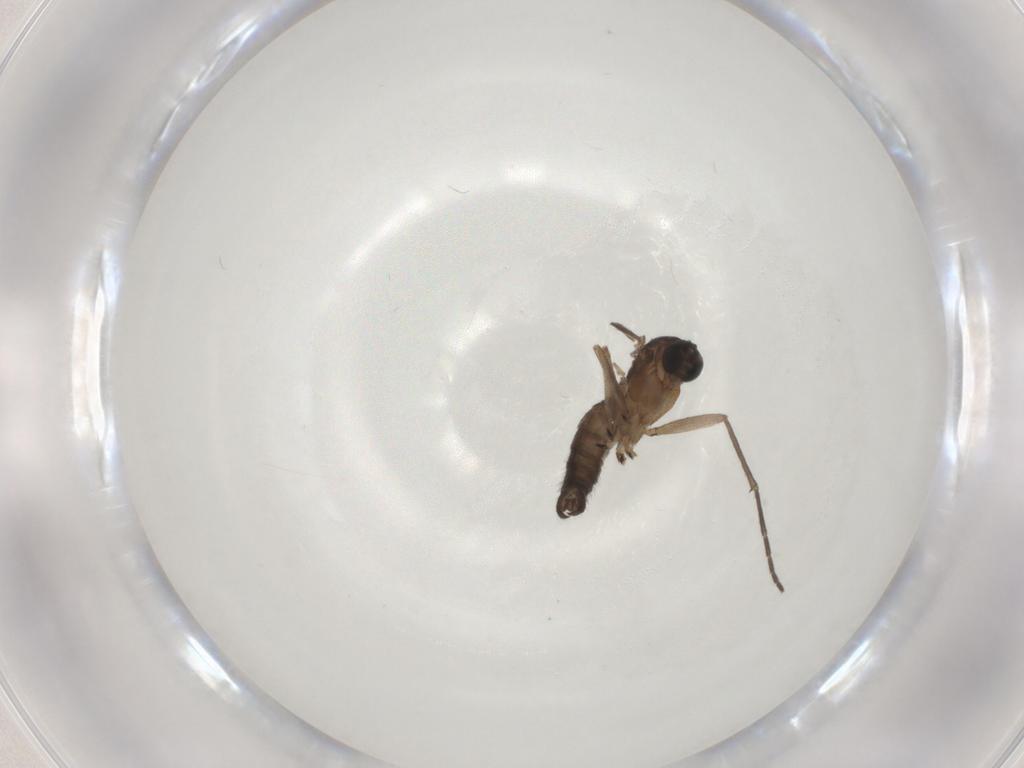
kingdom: Animalia
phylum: Arthropoda
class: Insecta
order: Diptera
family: Sciaridae
